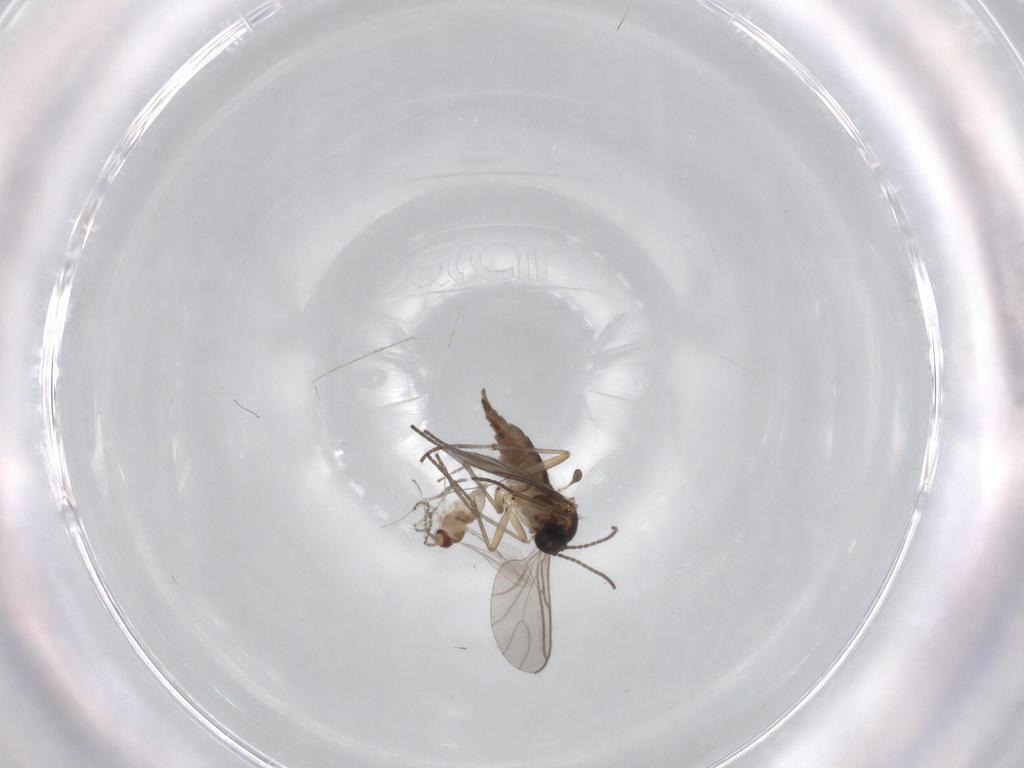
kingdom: Animalia
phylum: Arthropoda
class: Insecta
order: Diptera
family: Sciaridae
